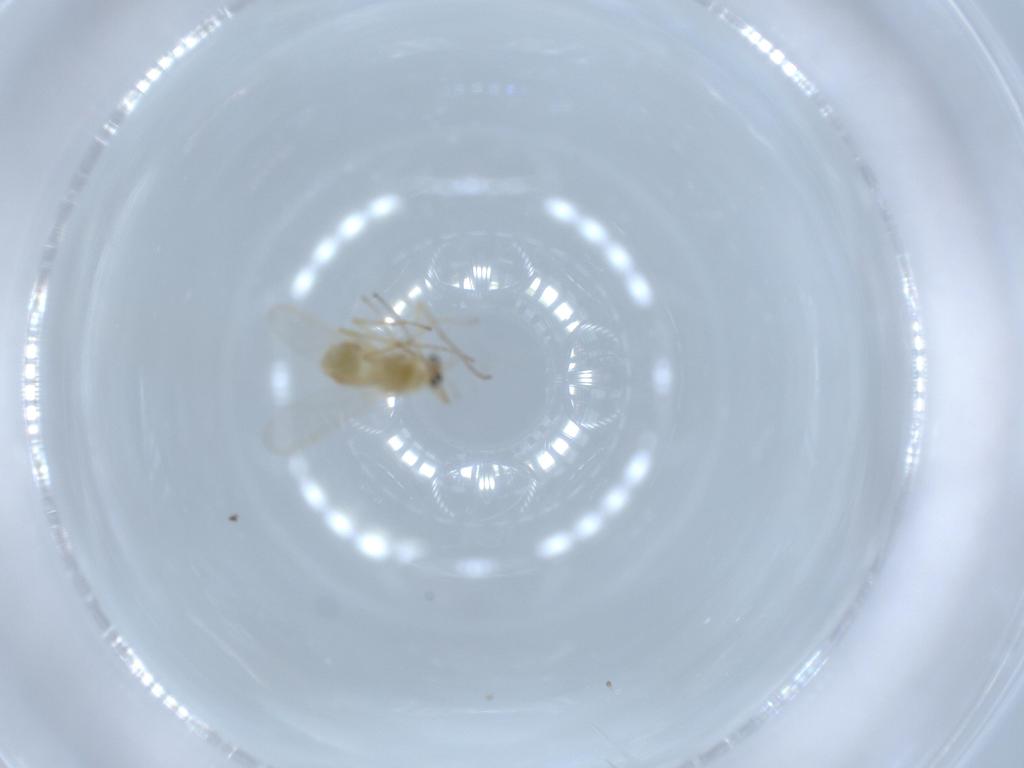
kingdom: Animalia
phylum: Arthropoda
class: Insecta
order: Diptera
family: Chironomidae
